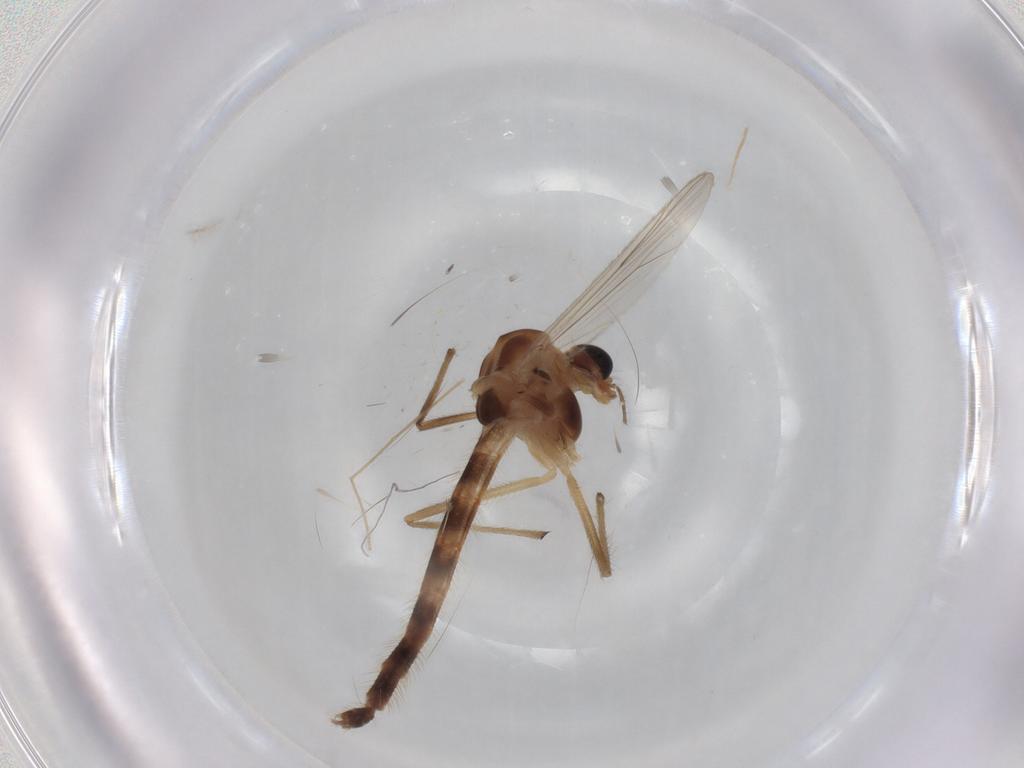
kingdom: Animalia
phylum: Arthropoda
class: Insecta
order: Diptera
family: Chironomidae
